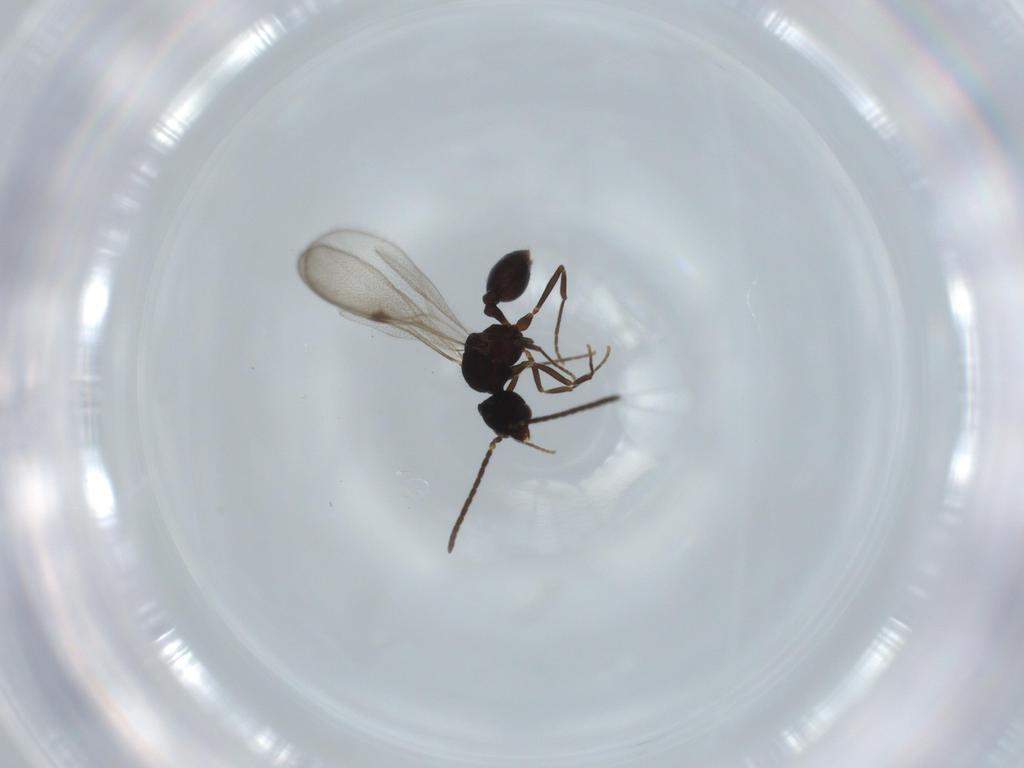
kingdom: Animalia
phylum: Arthropoda
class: Insecta
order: Hymenoptera
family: Formicidae
